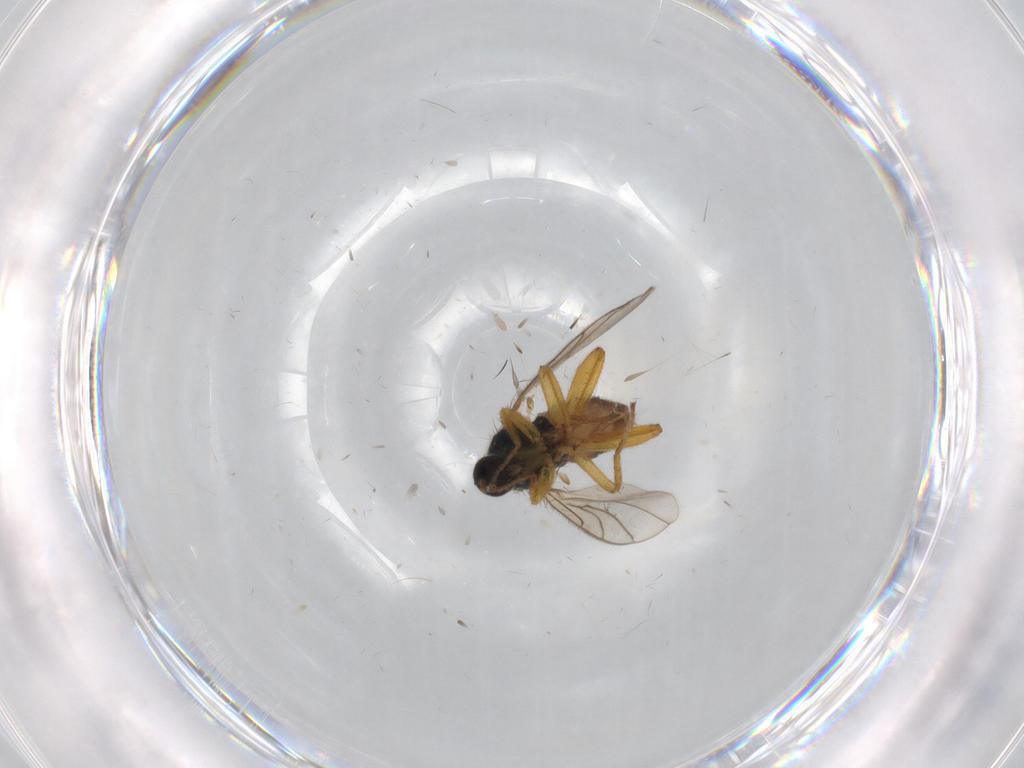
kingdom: Animalia
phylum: Arthropoda
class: Insecta
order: Diptera
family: Hybotidae
